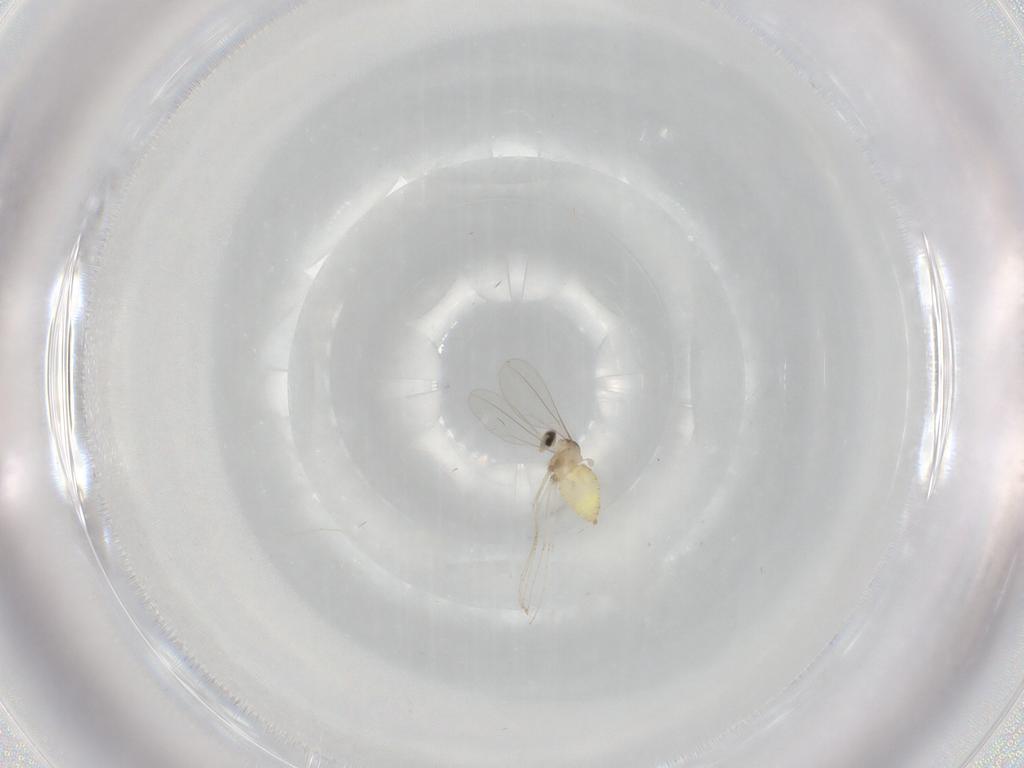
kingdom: Animalia
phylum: Arthropoda
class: Insecta
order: Diptera
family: Cecidomyiidae
